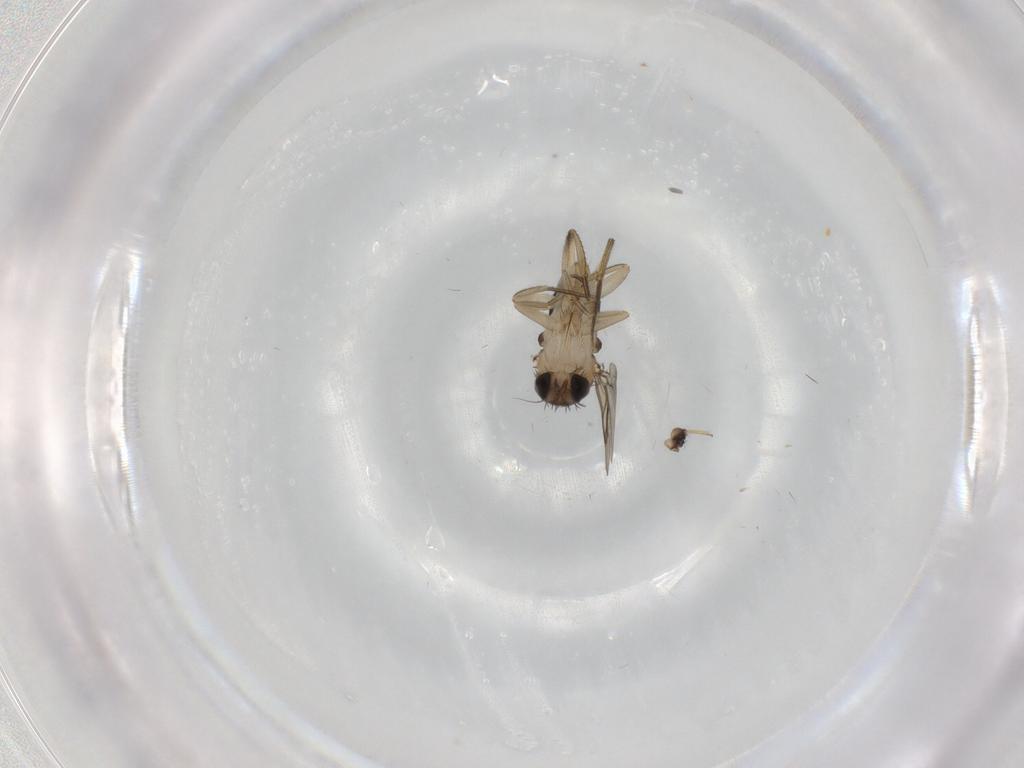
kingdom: Animalia
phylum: Arthropoda
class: Insecta
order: Diptera
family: Phoridae
